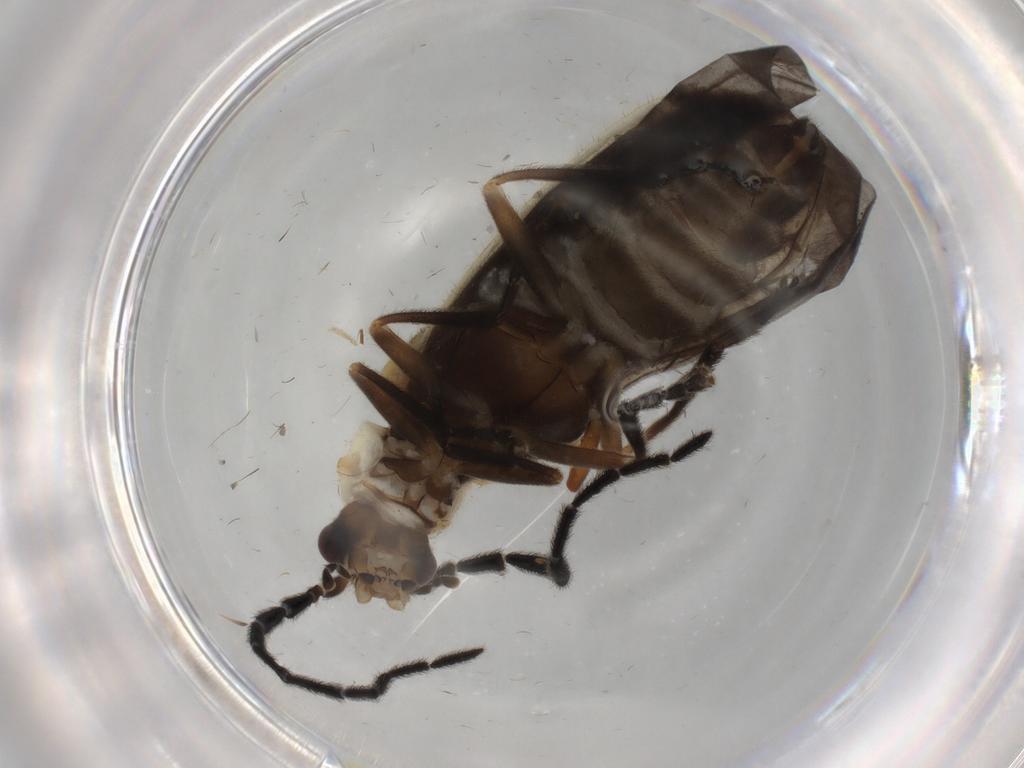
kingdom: Animalia
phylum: Arthropoda
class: Insecta
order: Coleoptera
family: Cantharidae
